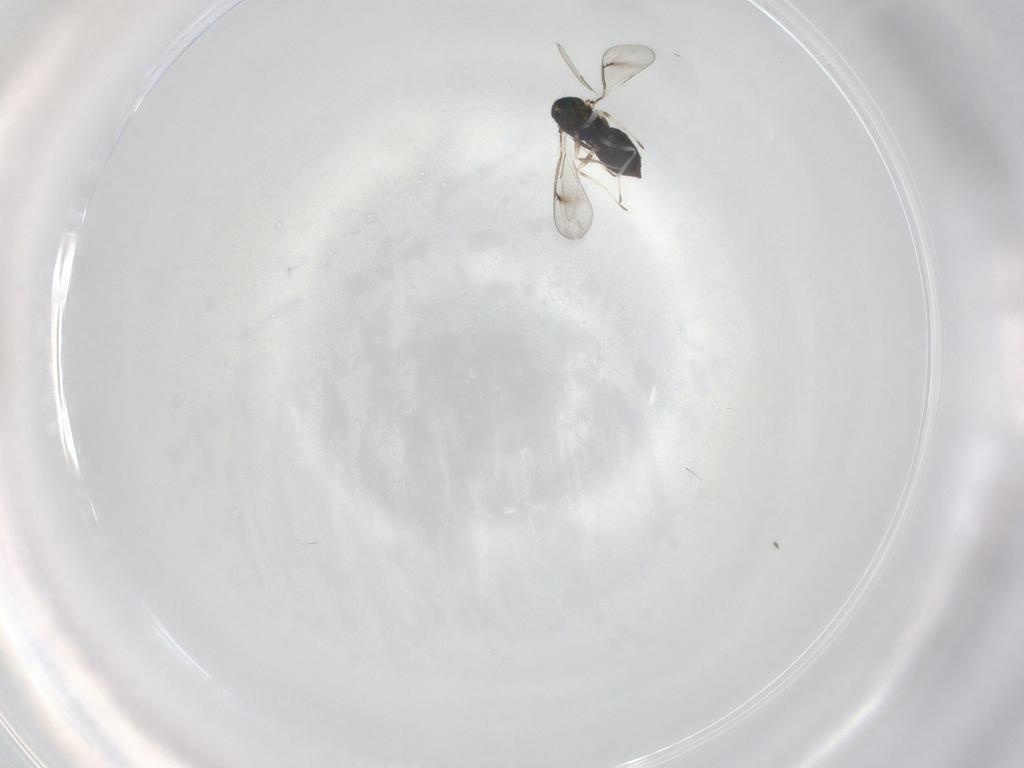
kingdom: Animalia
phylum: Arthropoda
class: Insecta
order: Hymenoptera
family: Eulophidae
